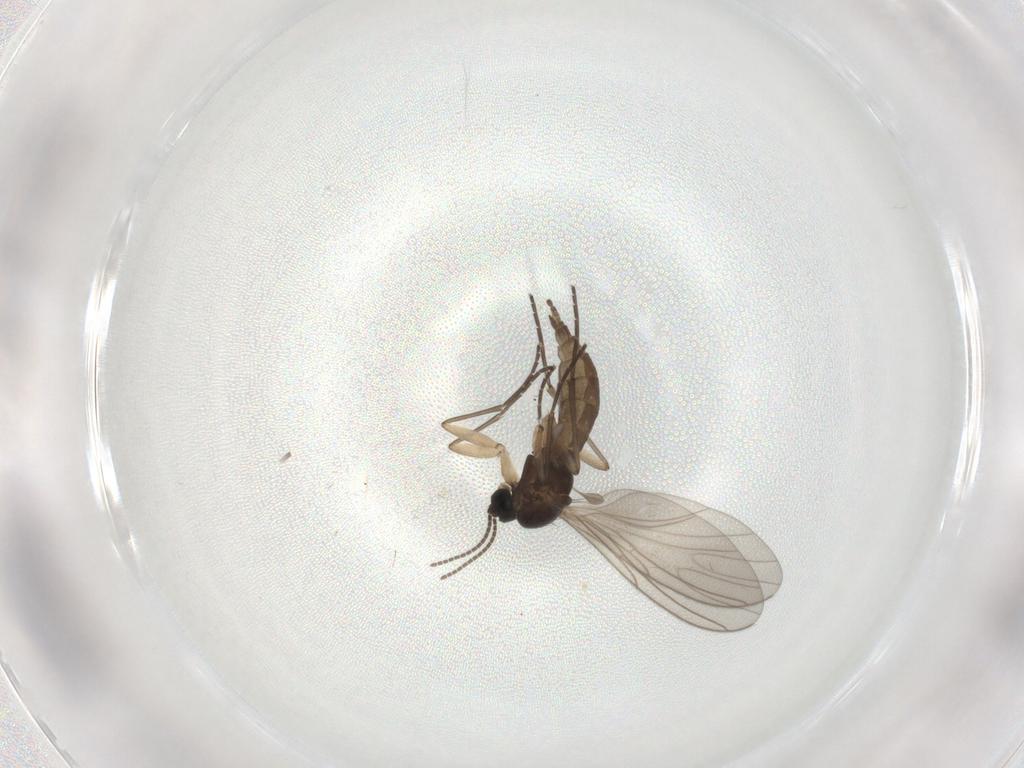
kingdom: Animalia
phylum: Arthropoda
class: Insecta
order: Diptera
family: Sciaridae
